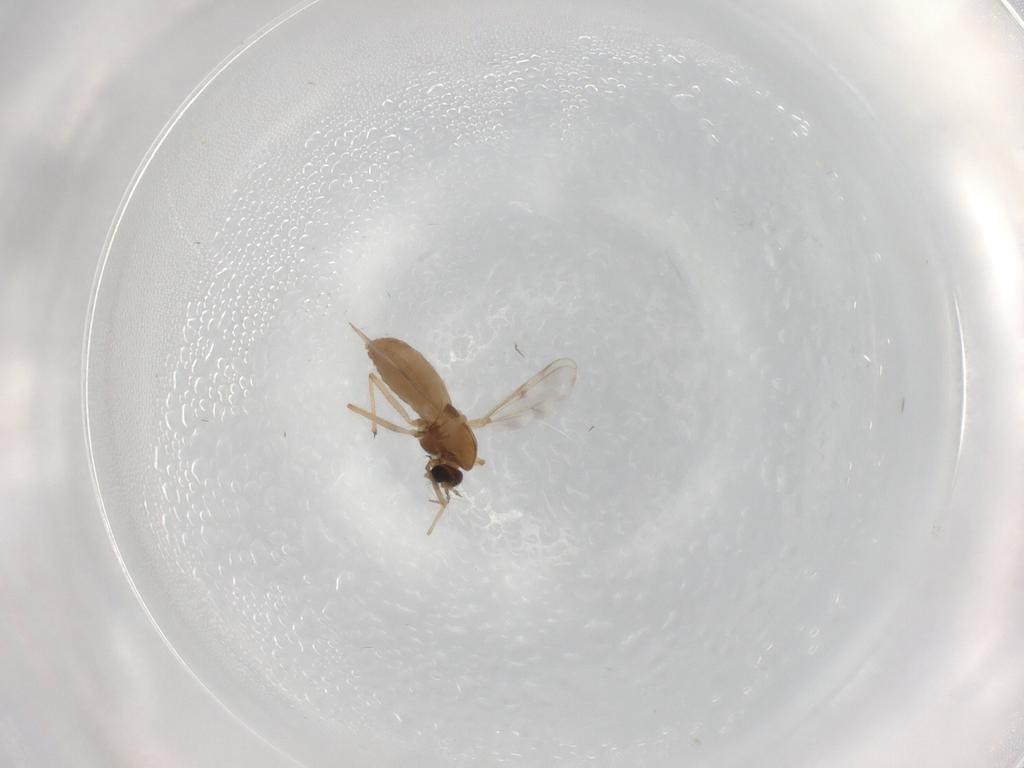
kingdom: Animalia
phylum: Arthropoda
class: Insecta
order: Diptera
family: Chironomidae
